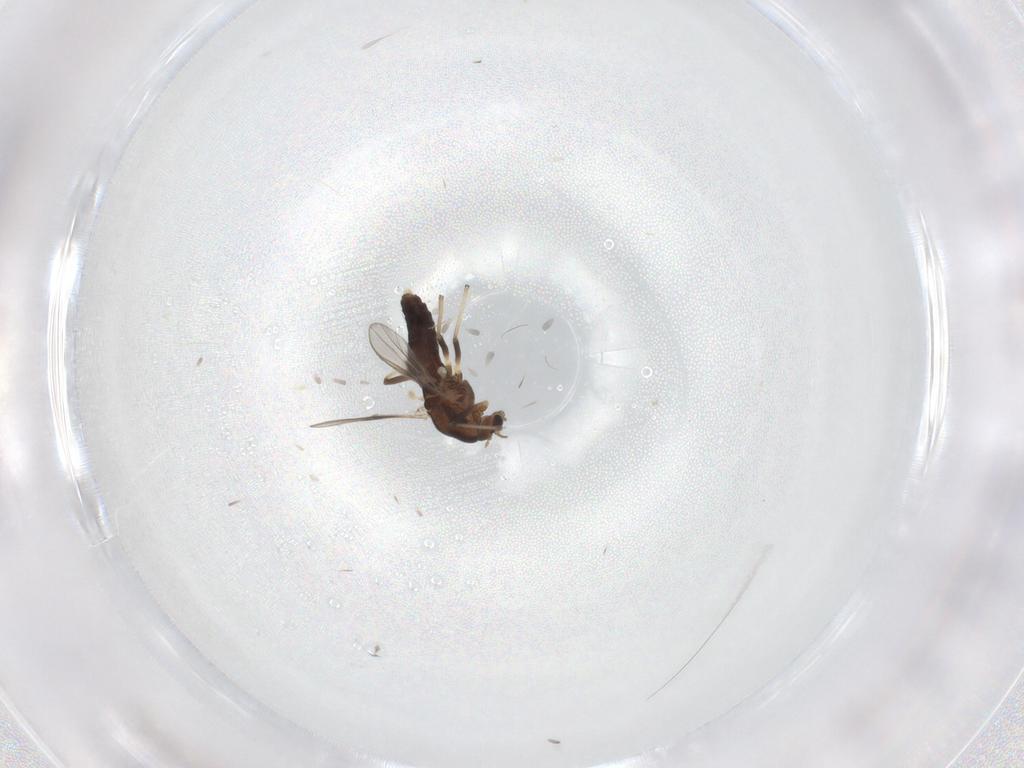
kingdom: Animalia
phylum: Arthropoda
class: Insecta
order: Diptera
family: Chironomidae
